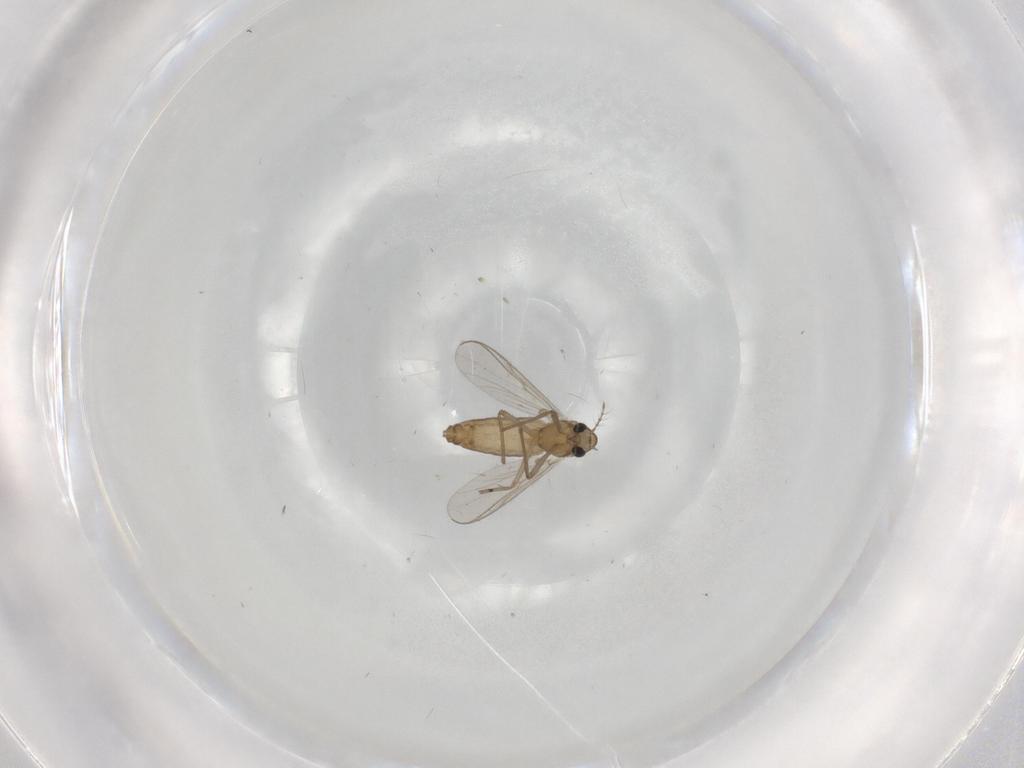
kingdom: Animalia
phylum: Arthropoda
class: Insecta
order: Diptera
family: Chironomidae
